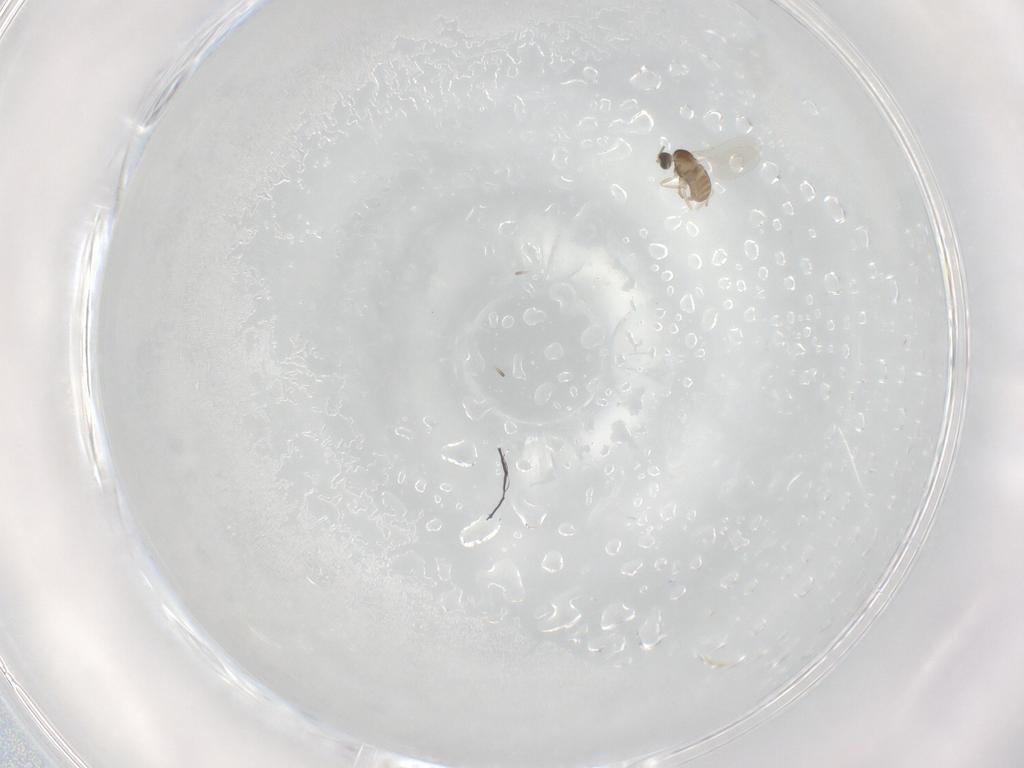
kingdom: Animalia
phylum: Arthropoda
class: Insecta
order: Diptera
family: Cecidomyiidae
